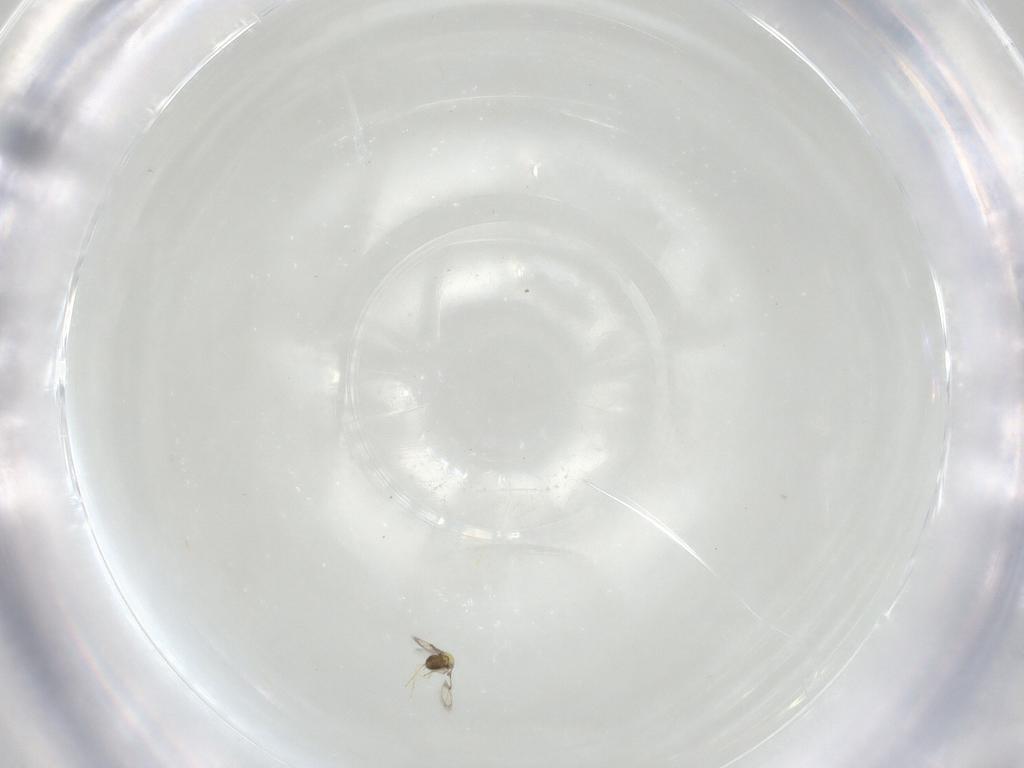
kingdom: Animalia
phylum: Arthropoda
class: Insecta
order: Hymenoptera
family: Trichogrammatidae
